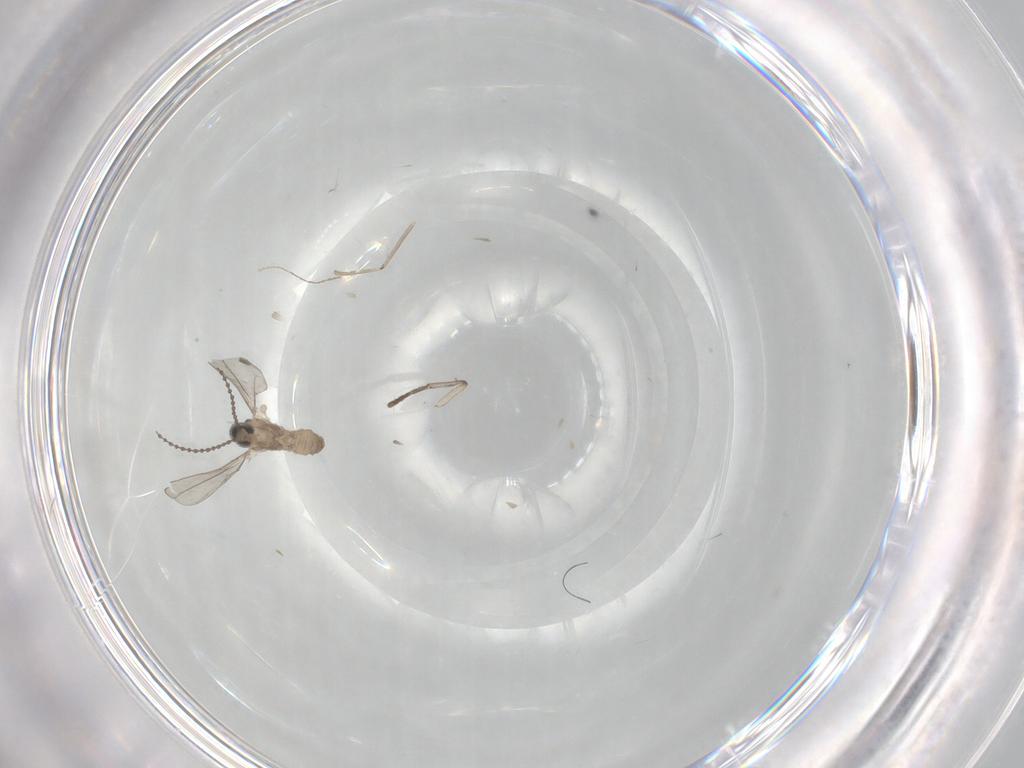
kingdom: Animalia
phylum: Arthropoda
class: Insecta
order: Diptera
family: Cecidomyiidae
